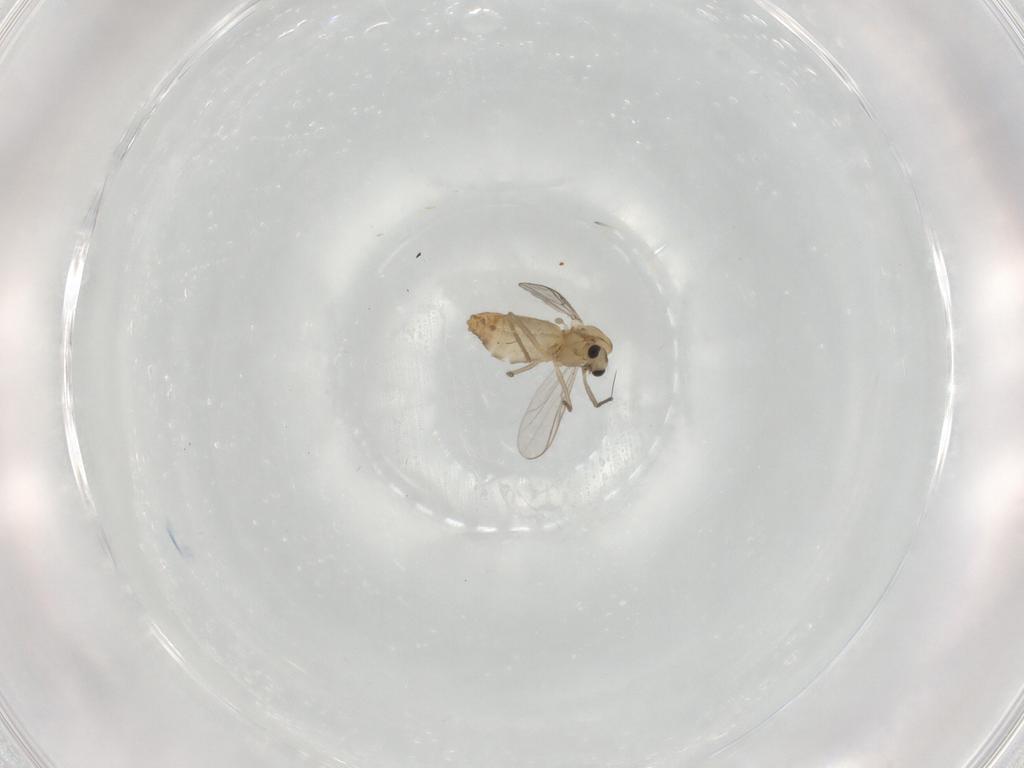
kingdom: Animalia
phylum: Arthropoda
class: Insecta
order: Diptera
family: Chironomidae
